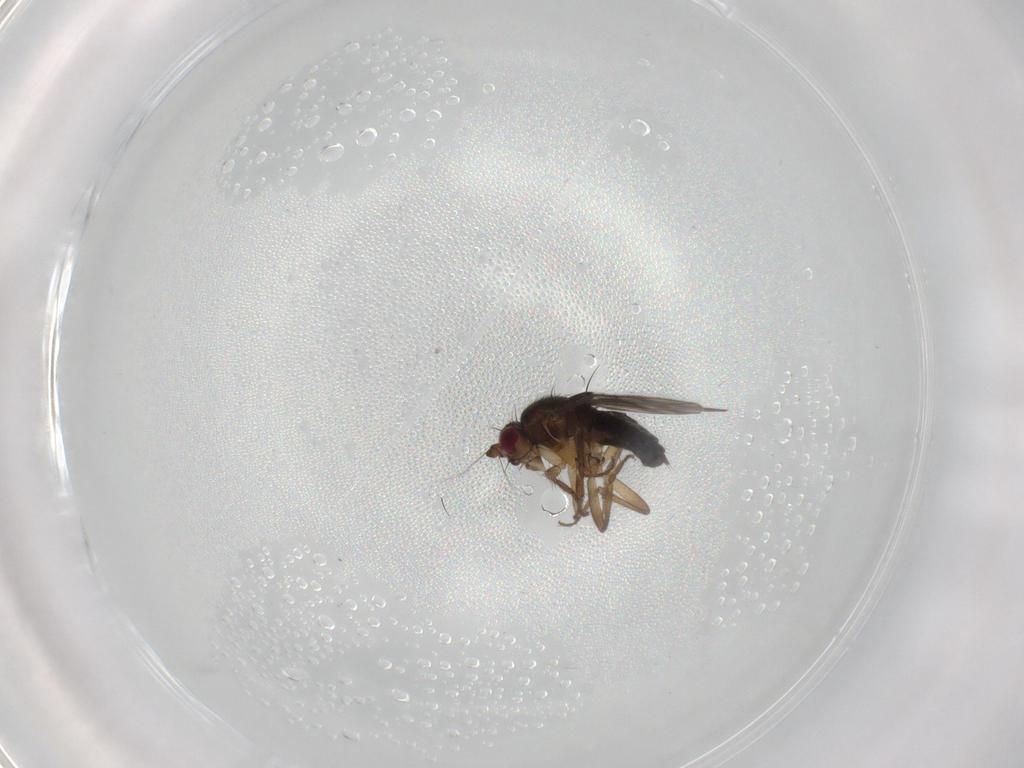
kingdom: Animalia
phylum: Arthropoda
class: Insecta
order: Diptera
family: Sphaeroceridae
